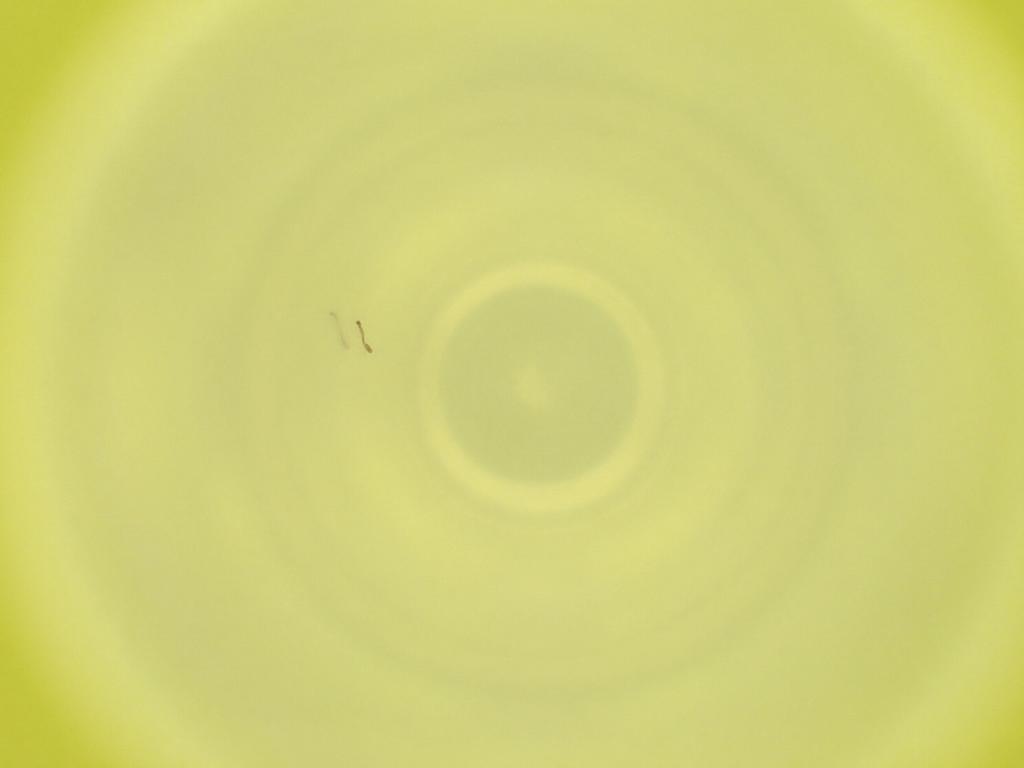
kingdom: Animalia
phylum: Arthropoda
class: Insecta
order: Diptera
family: Cecidomyiidae
